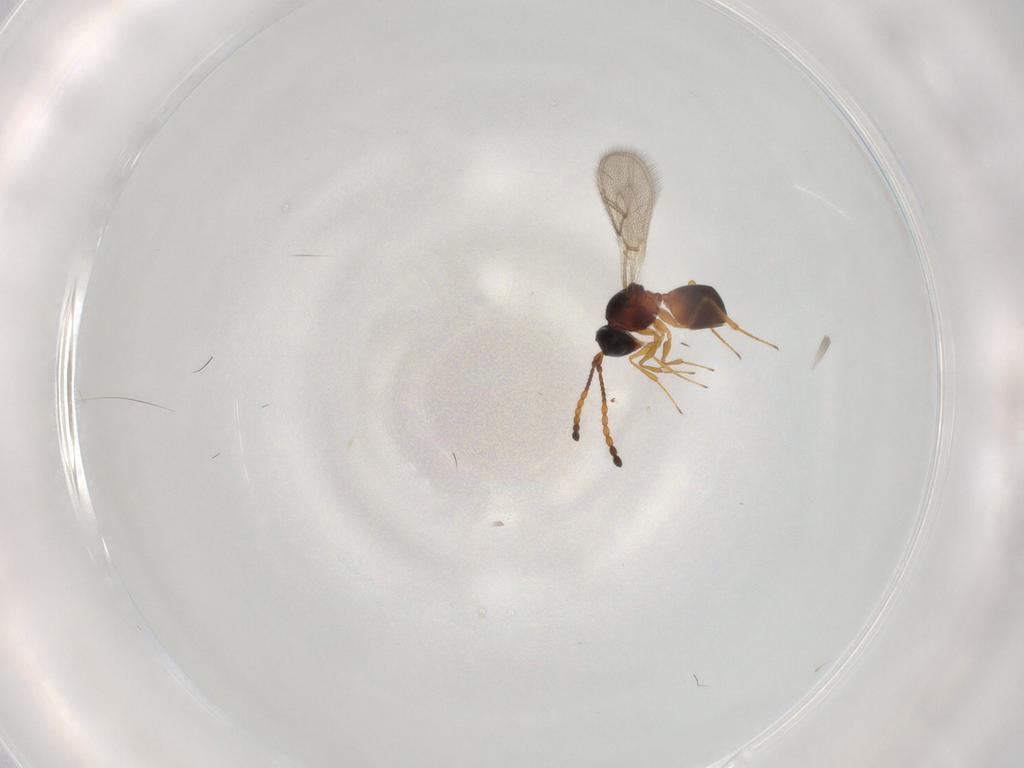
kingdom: Animalia
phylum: Arthropoda
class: Insecta
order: Hymenoptera
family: Figitidae
